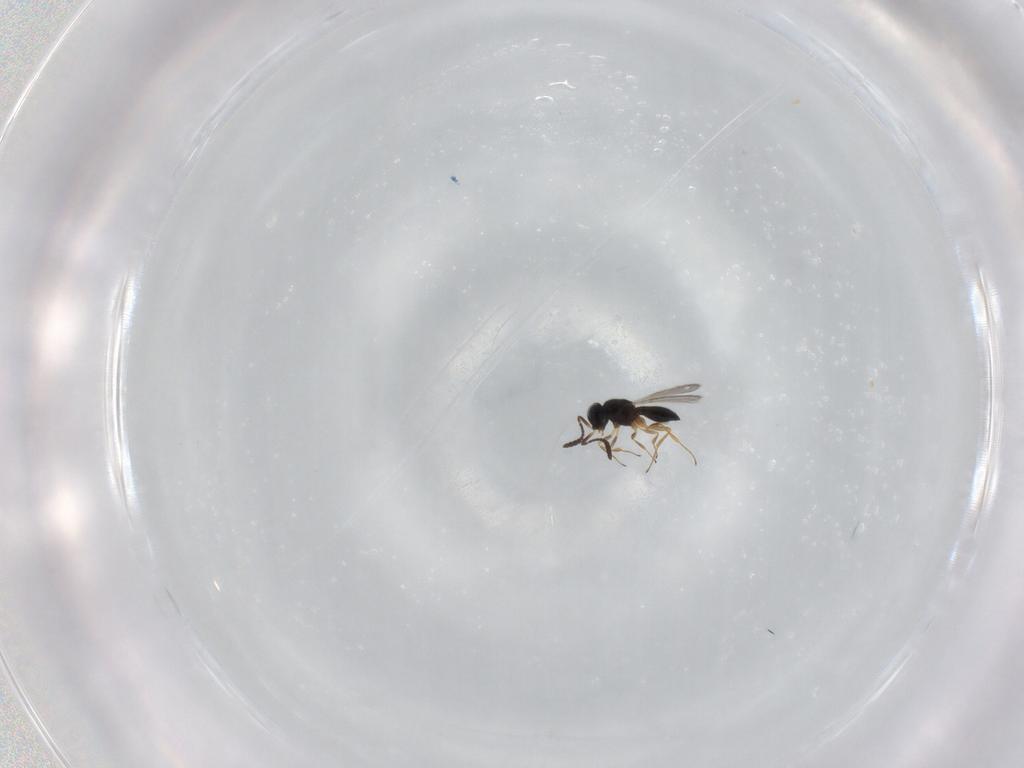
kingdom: Animalia
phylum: Arthropoda
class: Insecta
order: Hymenoptera
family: Scelionidae
